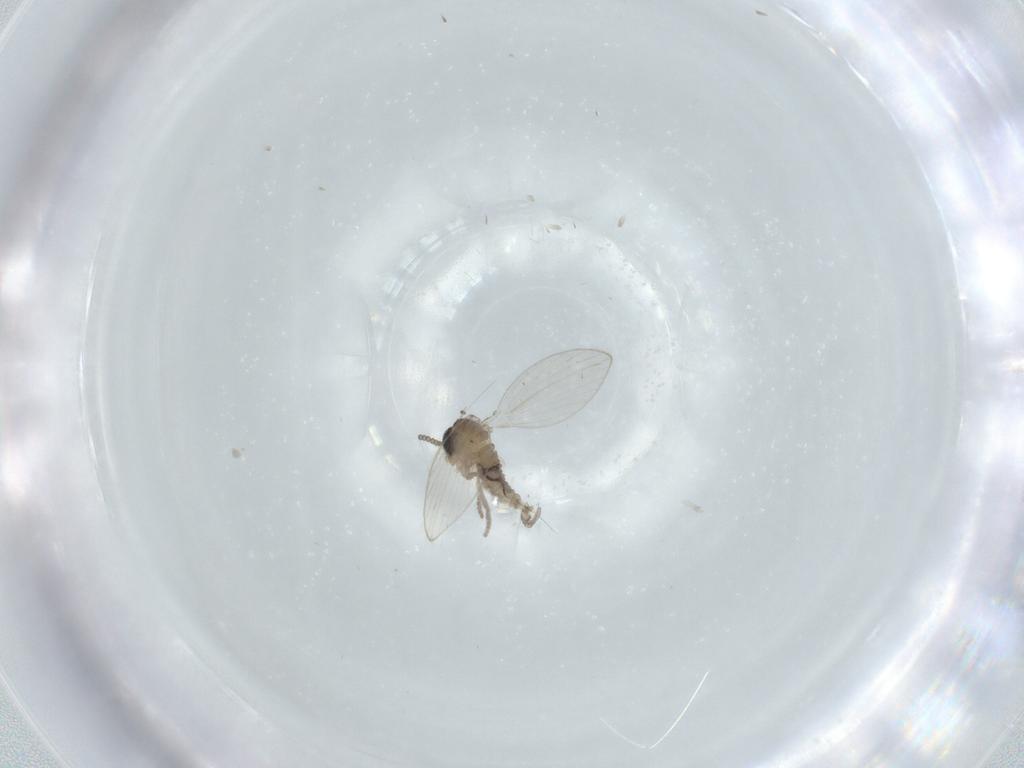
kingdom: Animalia
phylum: Arthropoda
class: Insecta
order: Diptera
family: Psychodidae
